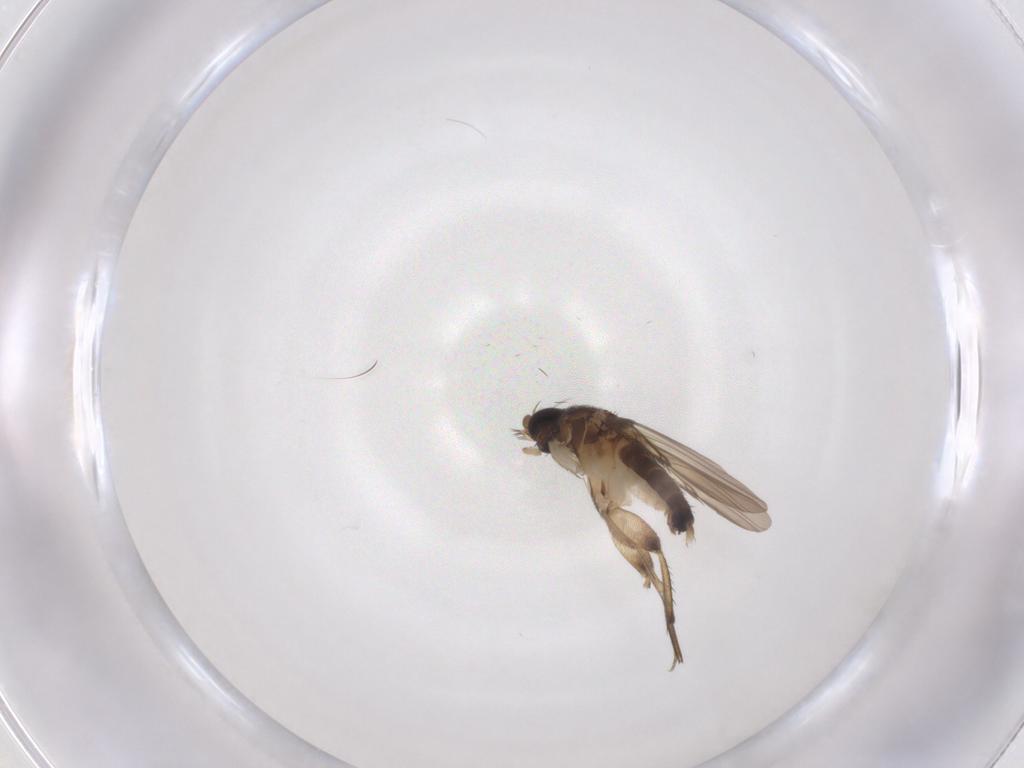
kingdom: Animalia
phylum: Arthropoda
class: Insecta
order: Diptera
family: Phoridae
